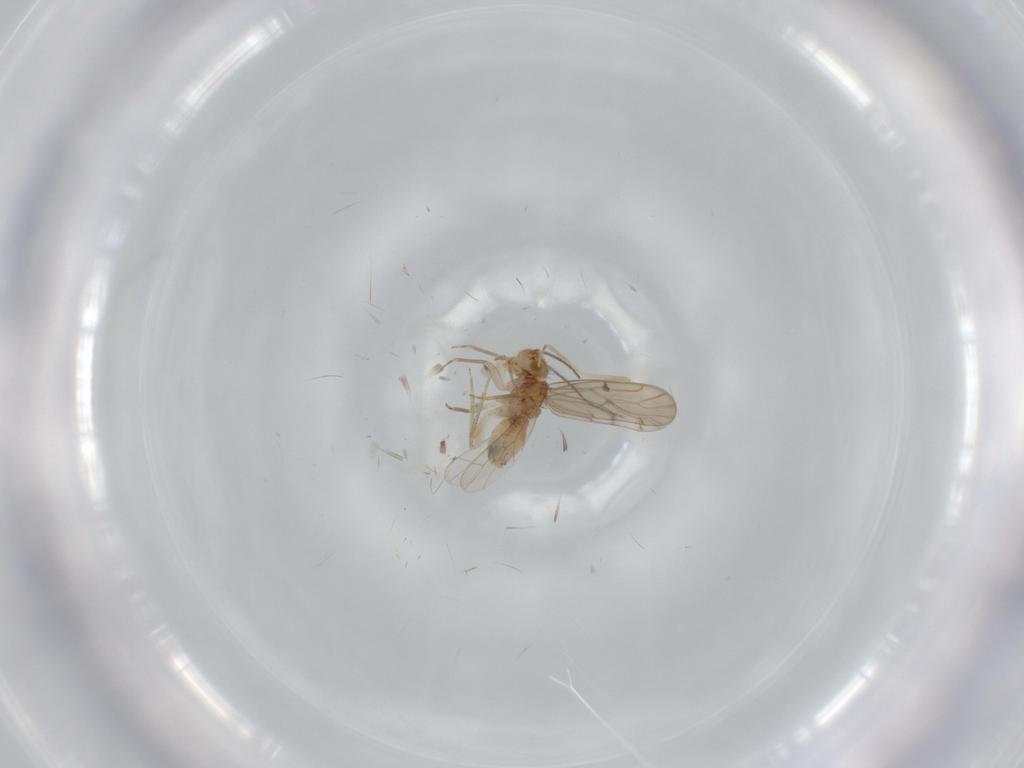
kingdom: Animalia
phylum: Arthropoda
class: Insecta
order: Psocodea
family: Ectopsocidae
